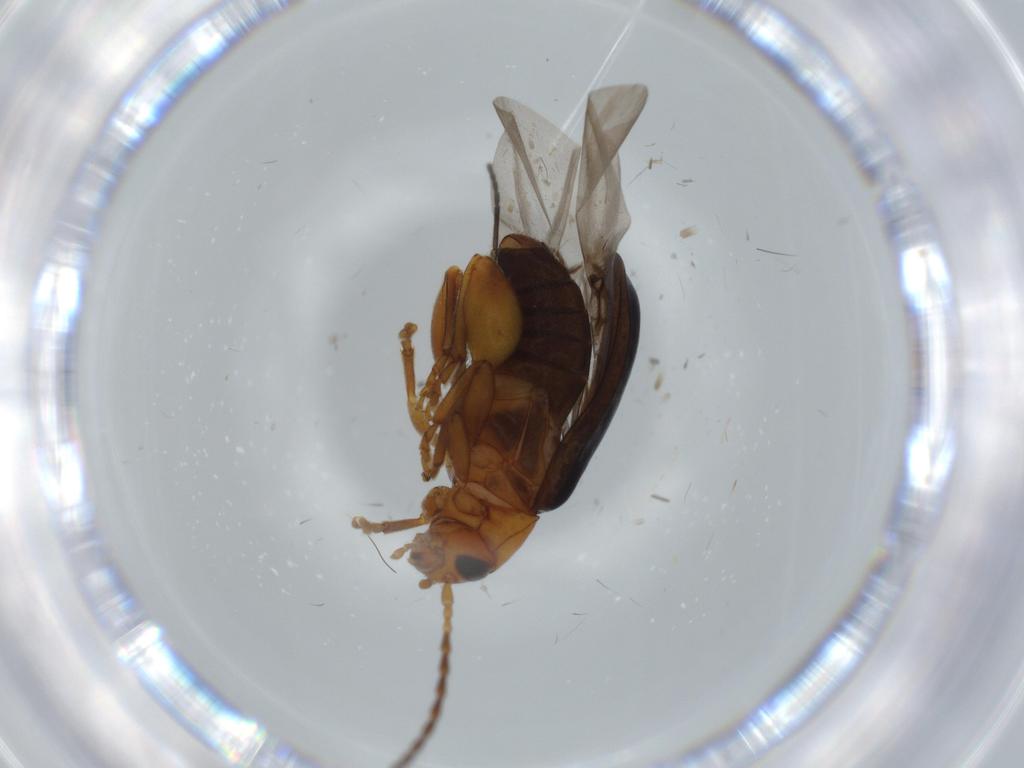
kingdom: Animalia
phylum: Arthropoda
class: Insecta
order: Coleoptera
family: Chrysomelidae
